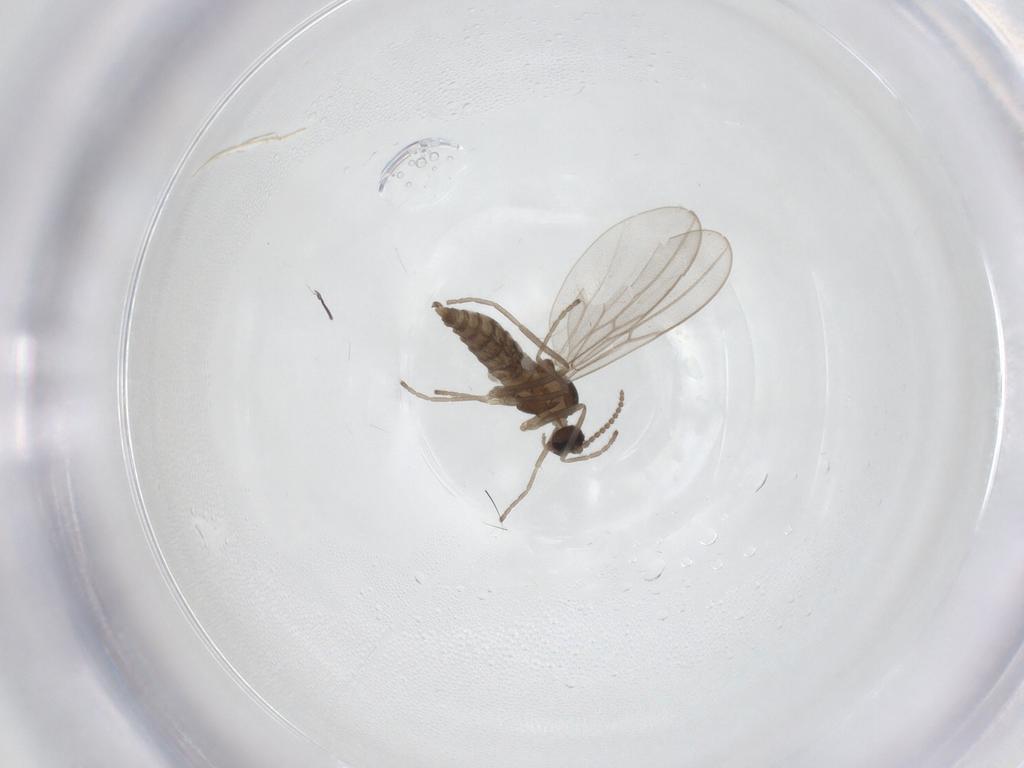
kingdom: Animalia
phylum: Arthropoda
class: Insecta
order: Diptera
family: Cecidomyiidae
